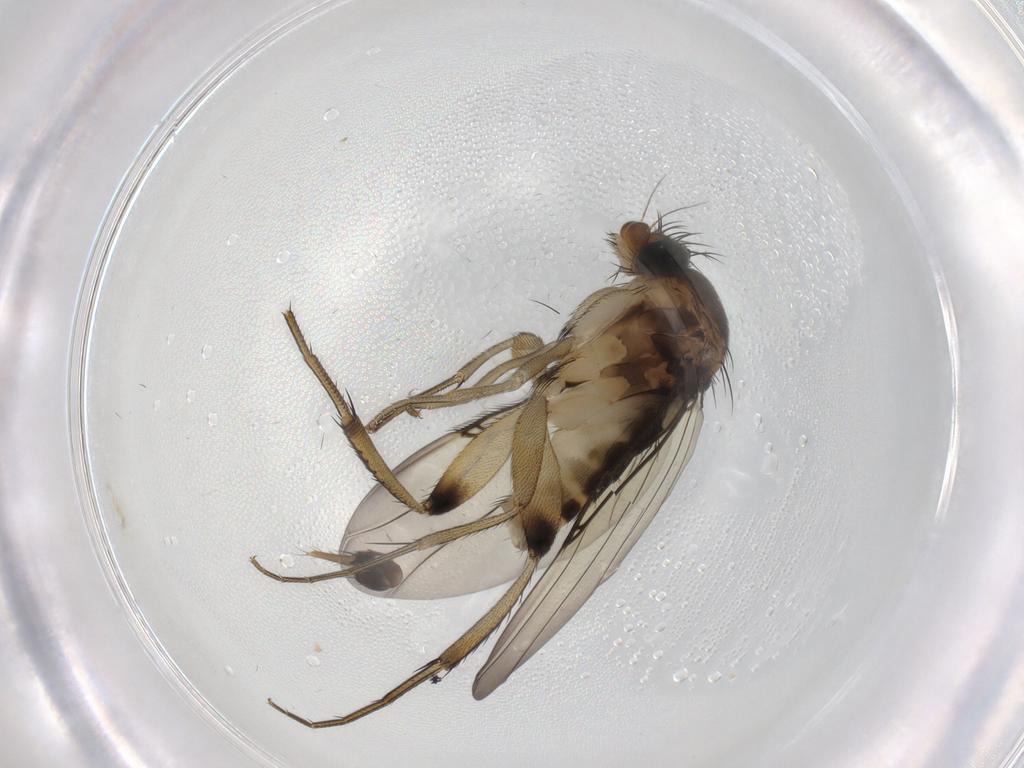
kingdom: Animalia
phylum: Arthropoda
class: Insecta
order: Diptera
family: Phoridae
